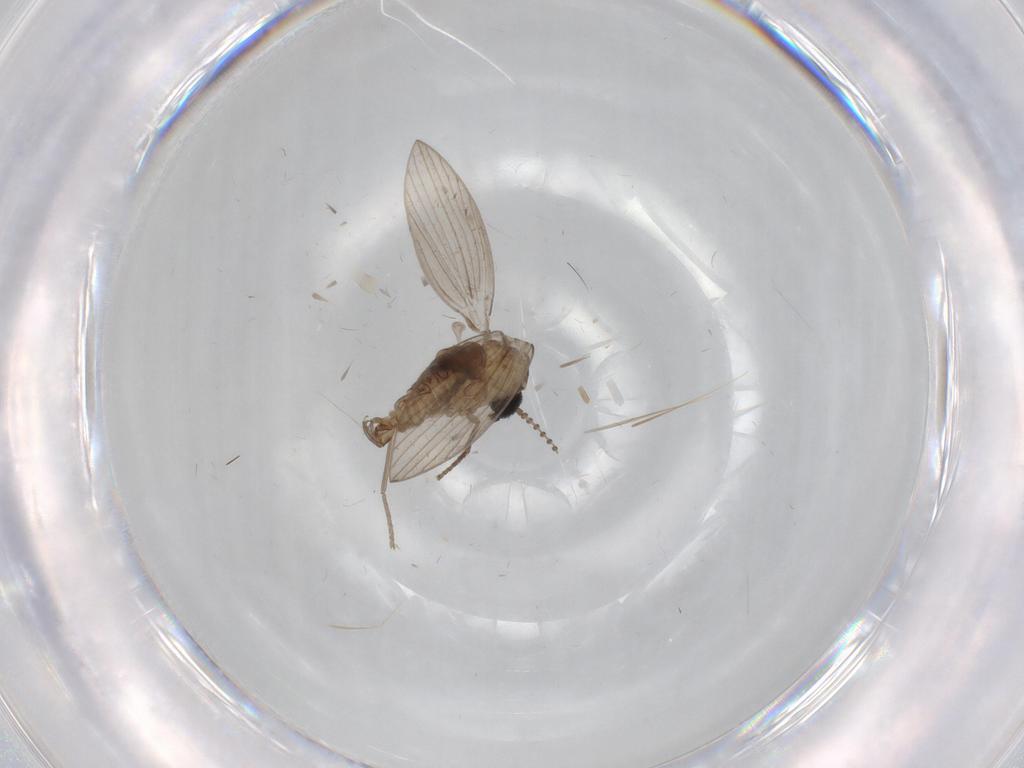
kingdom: Animalia
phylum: Arthropoda
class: Insecta
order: Diptera
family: Psychodidae
